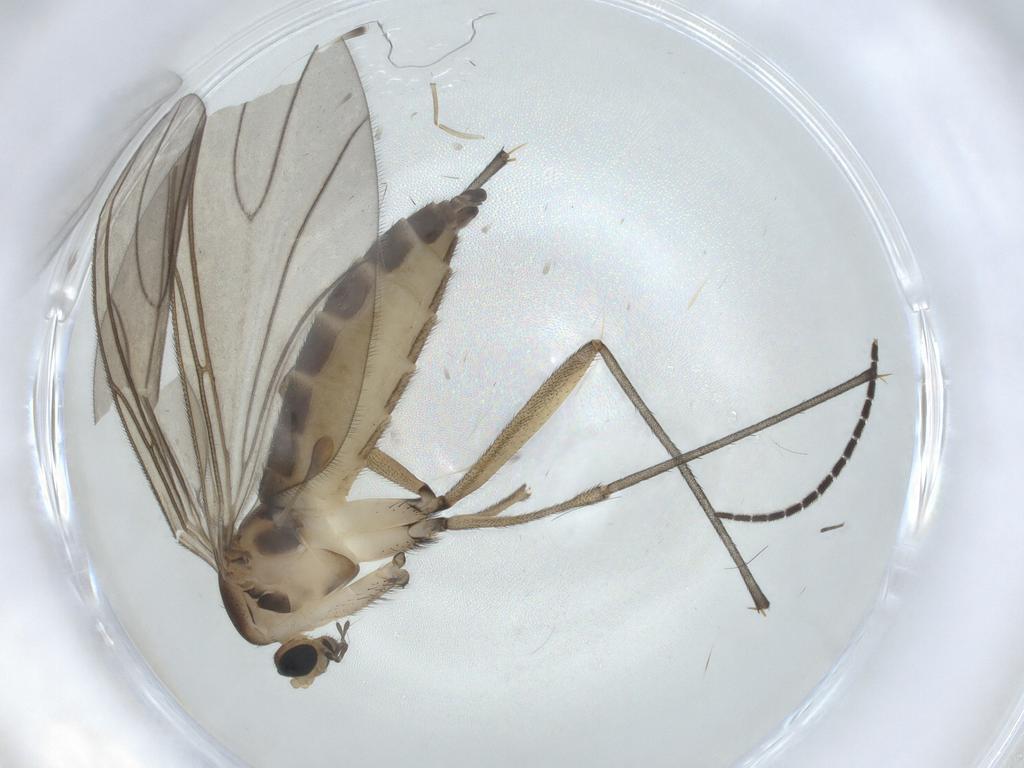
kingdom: Animalia
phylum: Arthropoda
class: Insecta
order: Diptera
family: Sciaridae
